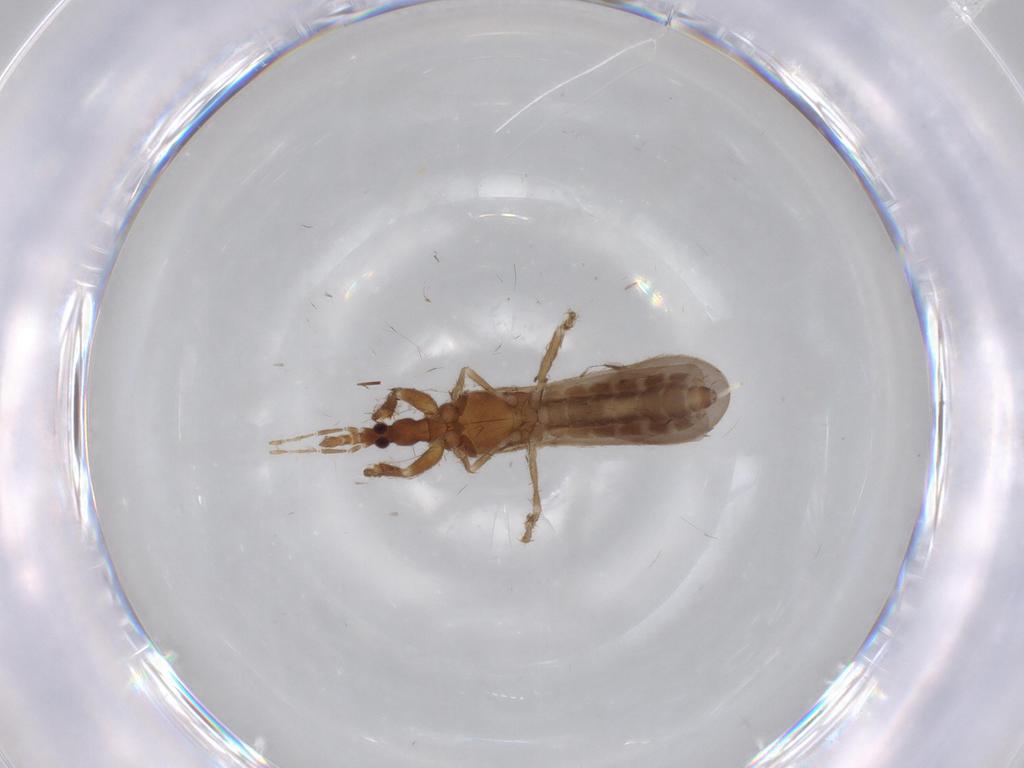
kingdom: Animalia
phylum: Arthropoda
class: Insecta
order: Hemiptera
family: Enicocephalidae
